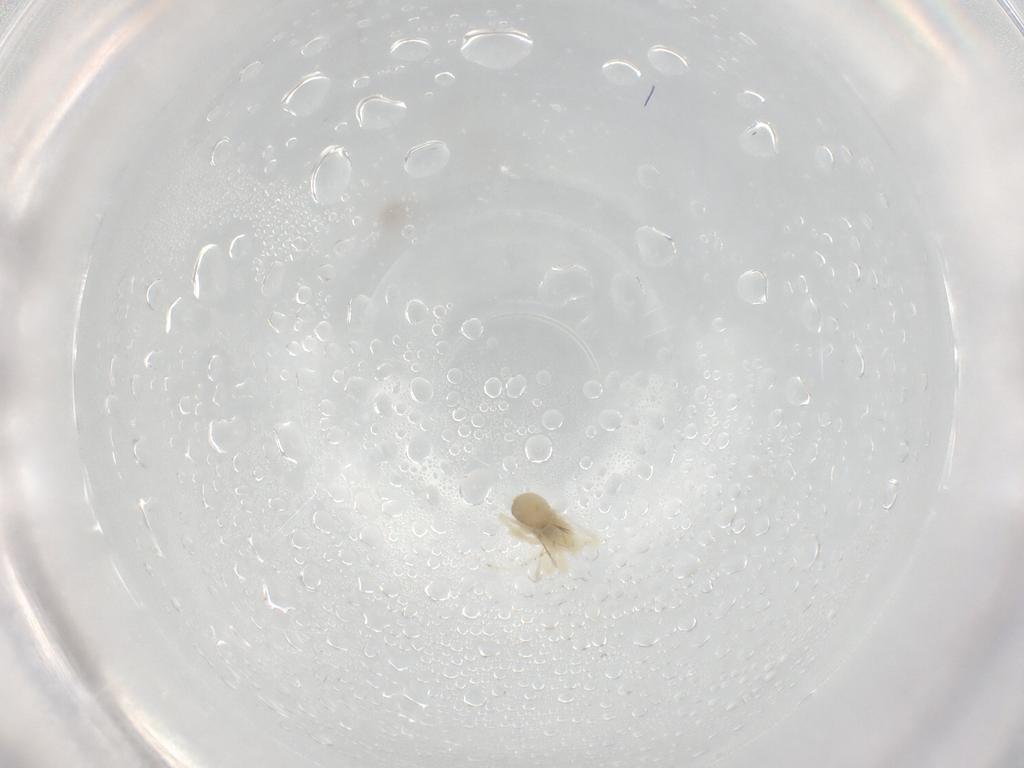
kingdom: Animalia
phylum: Arthropoda
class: Arachnida
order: Trombidiformes
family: Anystidae
